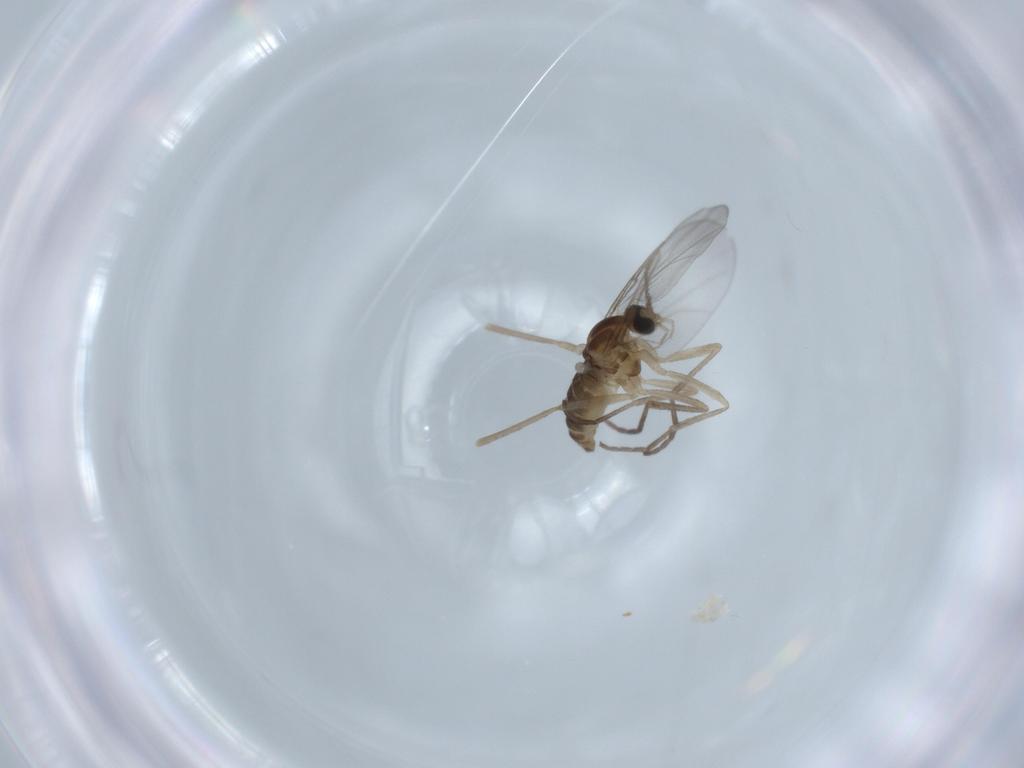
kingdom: Animalia
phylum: Arthropoda
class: Insecta
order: Diptera
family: Cecidomyiidae
